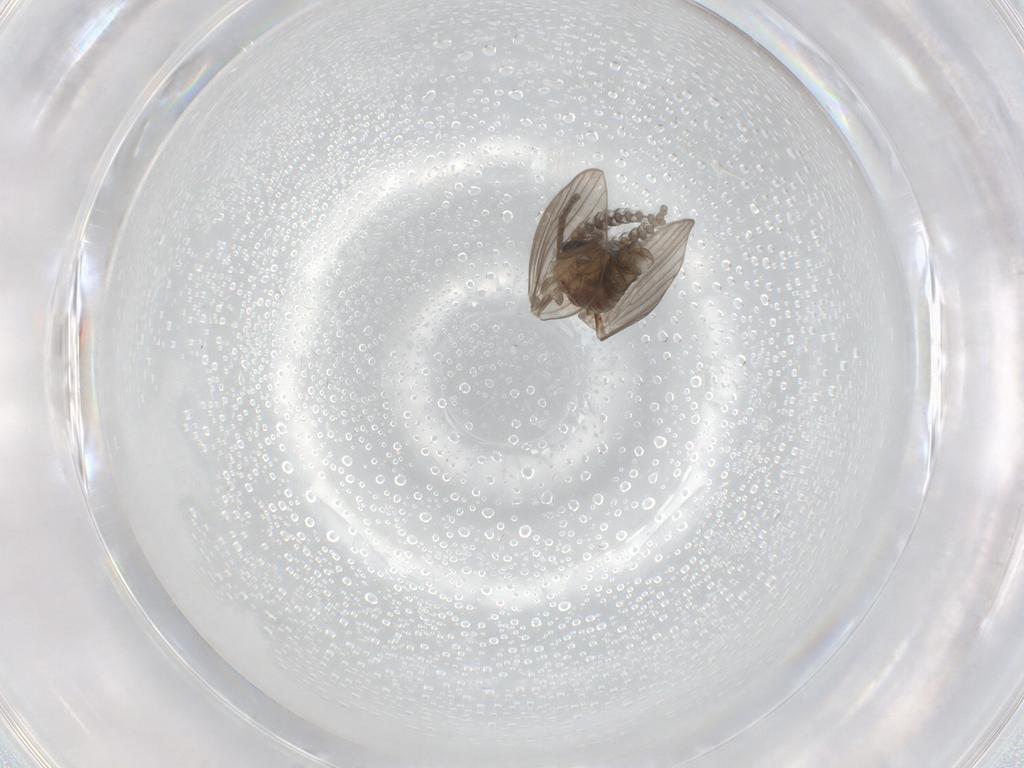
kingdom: Animalia
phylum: Arthropoda
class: Insecta
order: Diptera
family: Psychodidae
